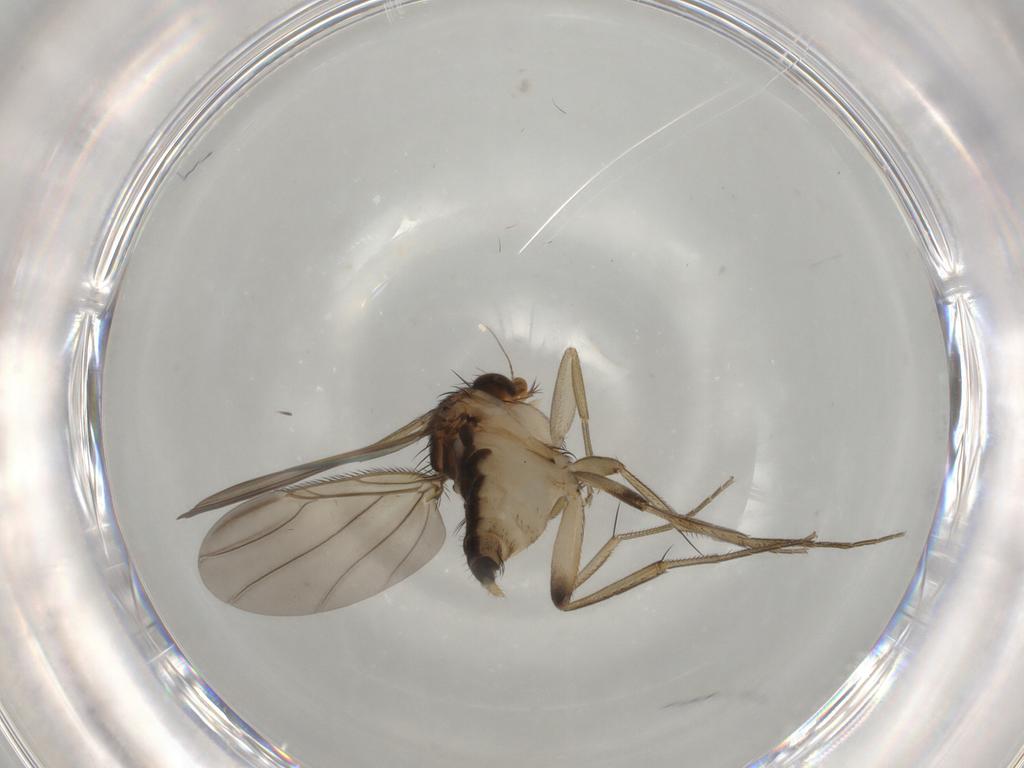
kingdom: Animalia
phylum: Arthropoda
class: Insecta
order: Diptera
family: Phoridae
